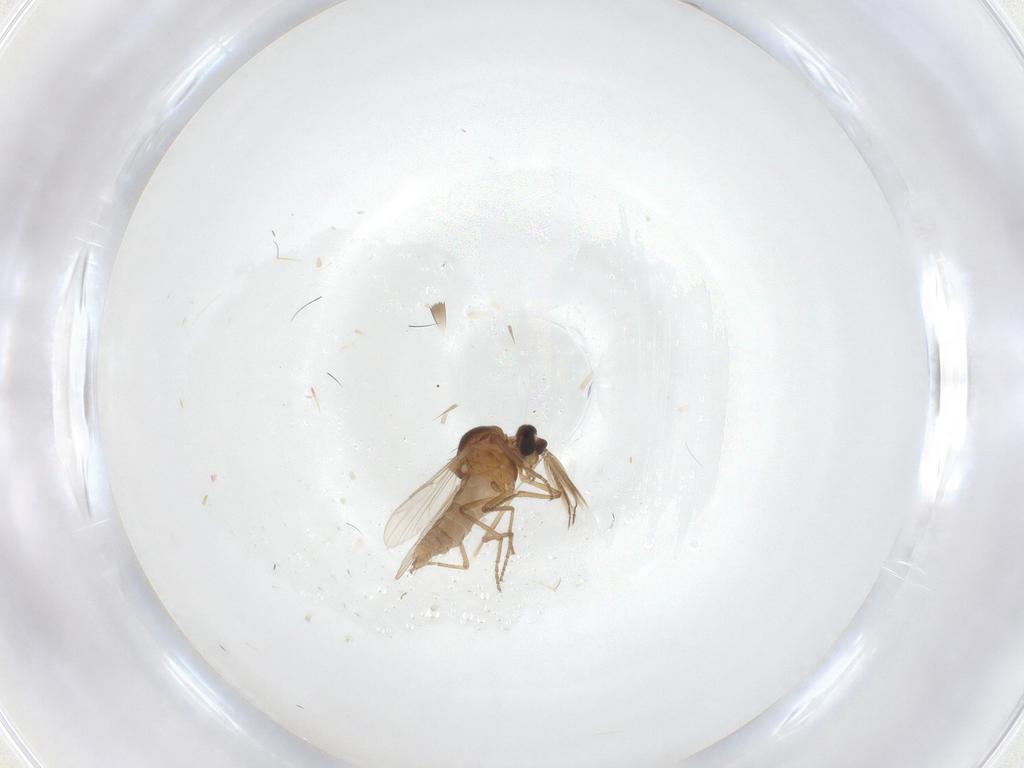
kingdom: Animalia
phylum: Arthropoda
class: Insecta
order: Diptera
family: Ceratopogonidae
